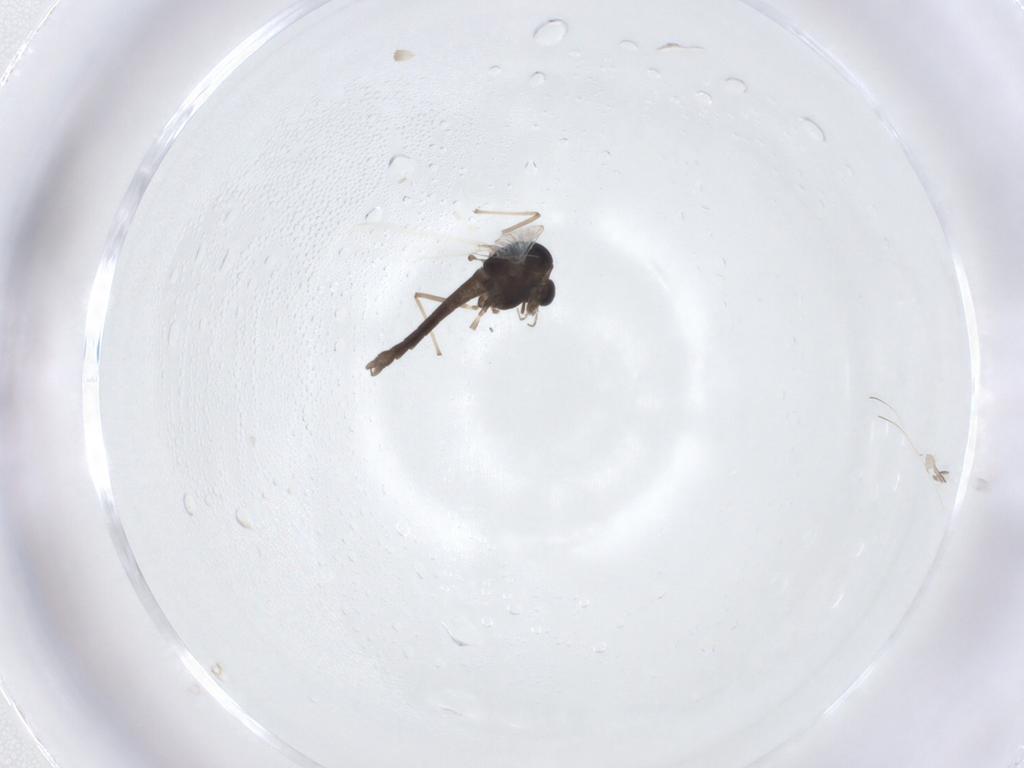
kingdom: Animalia
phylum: Arthropoda
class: Insecta
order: Diptera
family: Chironomidae
